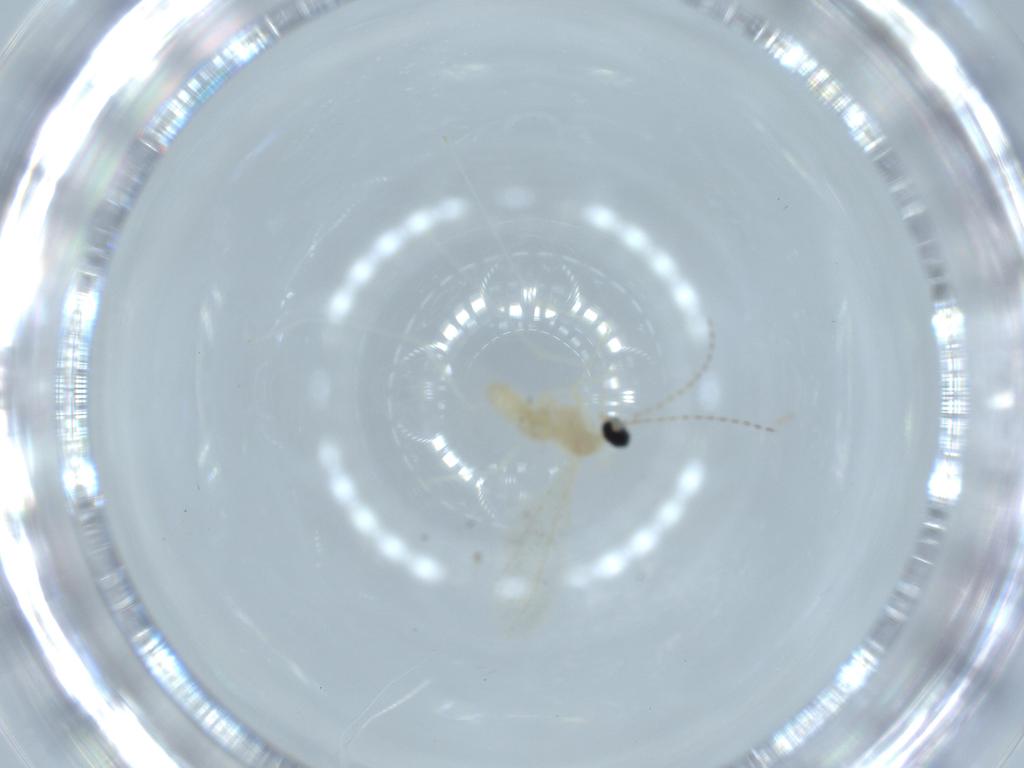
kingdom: Animalia
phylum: Arthropoda
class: Insecta
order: Diptera
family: Cecidomyiidae
